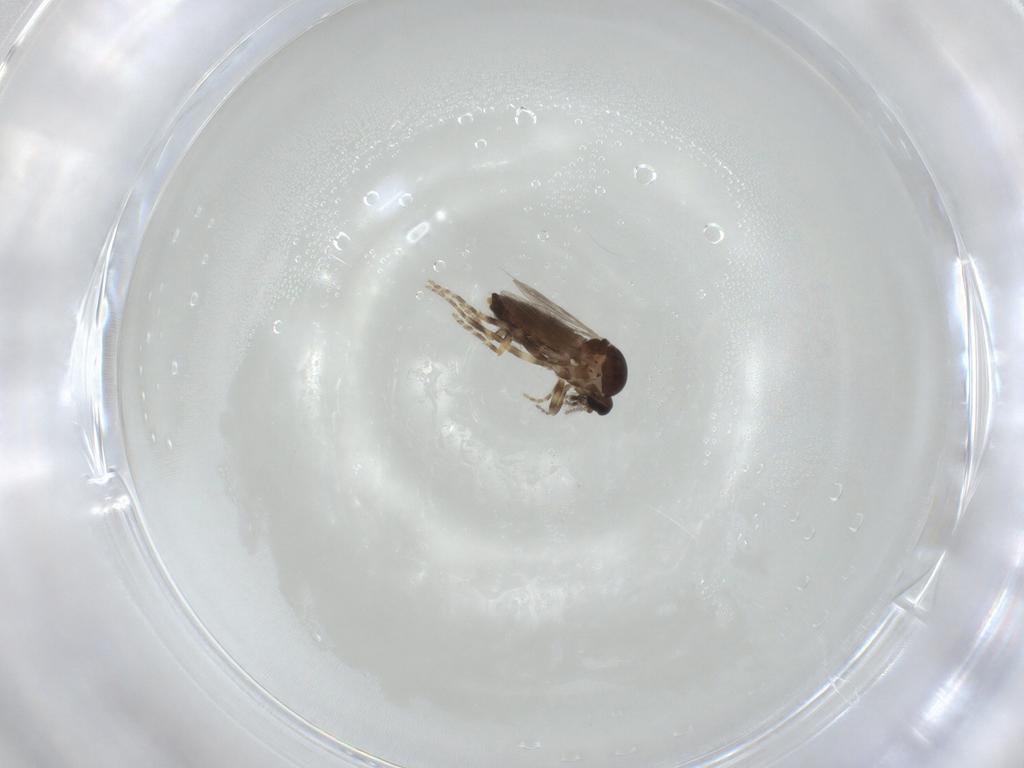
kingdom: Animalia
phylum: Arthropoda
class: Insecta
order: Diptera
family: Ceratopogonidae
